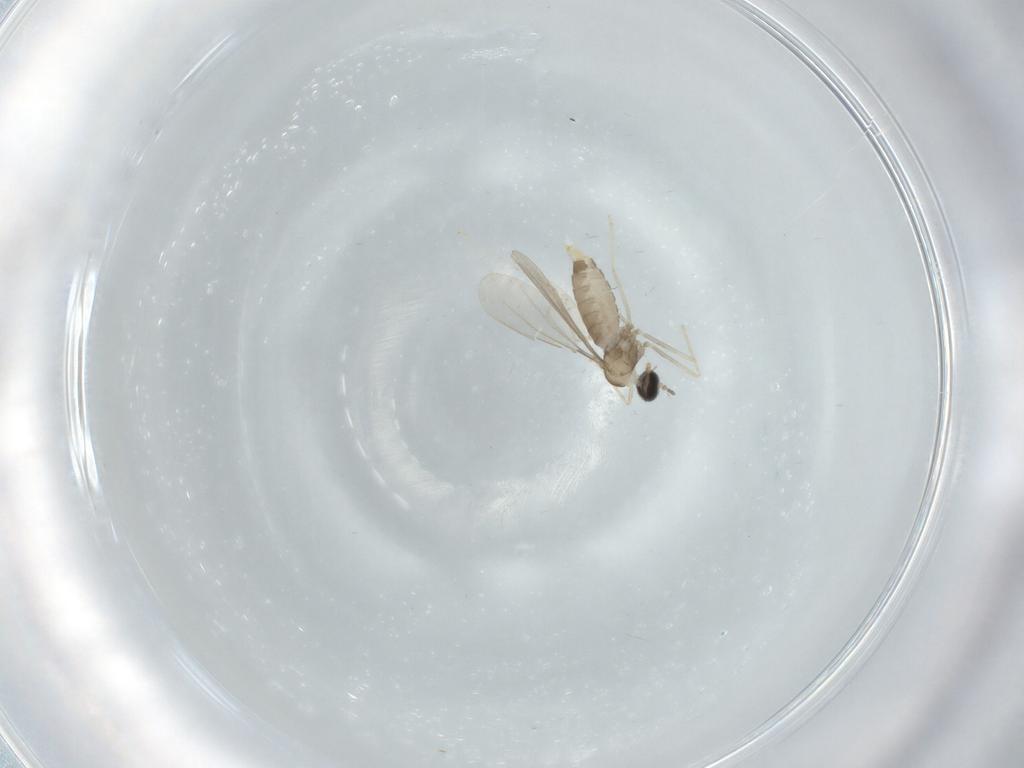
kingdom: Animalia
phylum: Arthropoda
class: Insecta
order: Diptera
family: Cecidomyiidae
